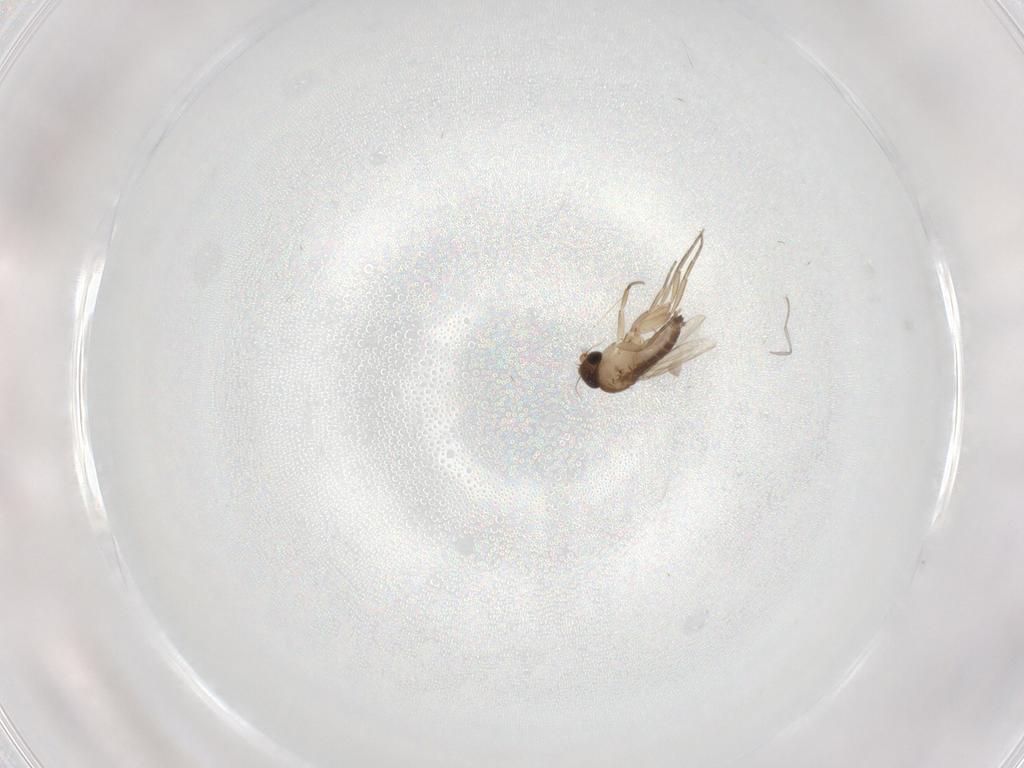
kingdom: Animalia
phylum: Arthropoda
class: Insecta
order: Diptera
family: Phoridae
